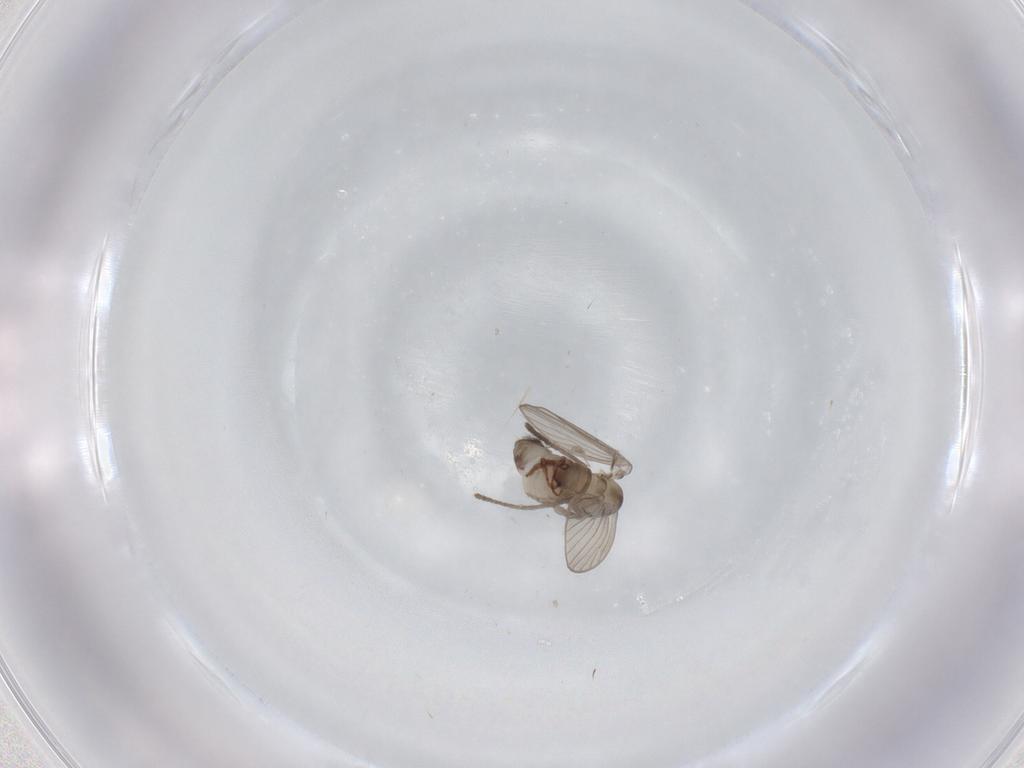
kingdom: Animalia
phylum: Arthropoda
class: Insecta
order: Diptera
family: Psychodidae
